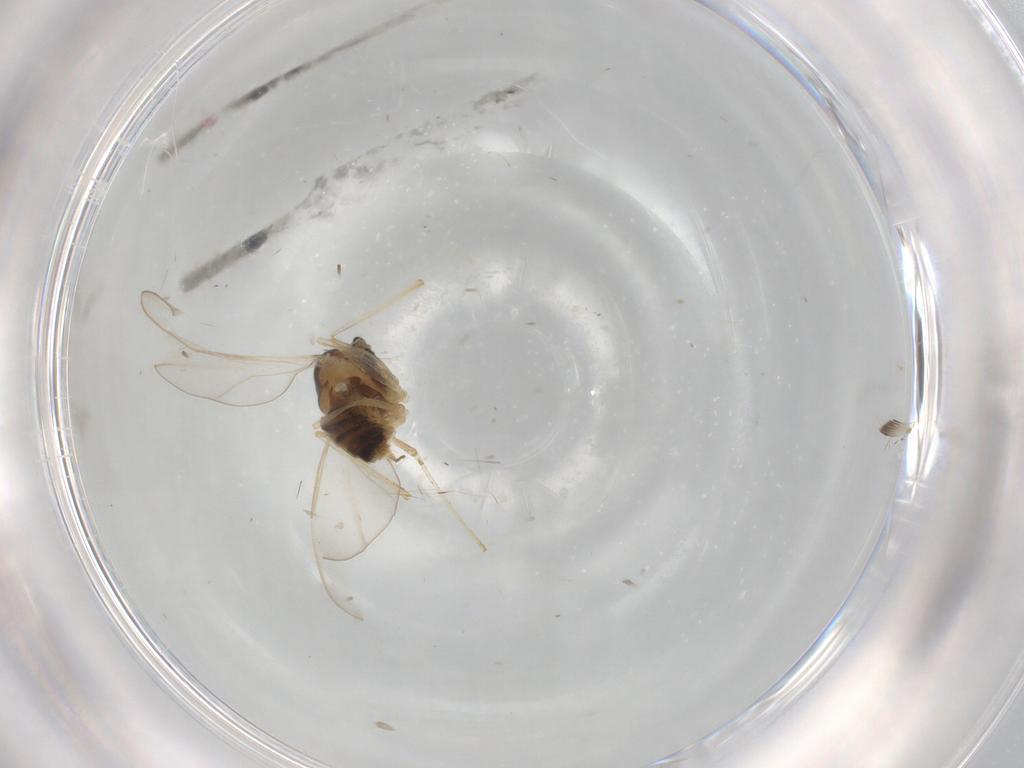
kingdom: Animalia
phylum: Arthropoda
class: Insecta
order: Diptera
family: Cecidomyiidae
